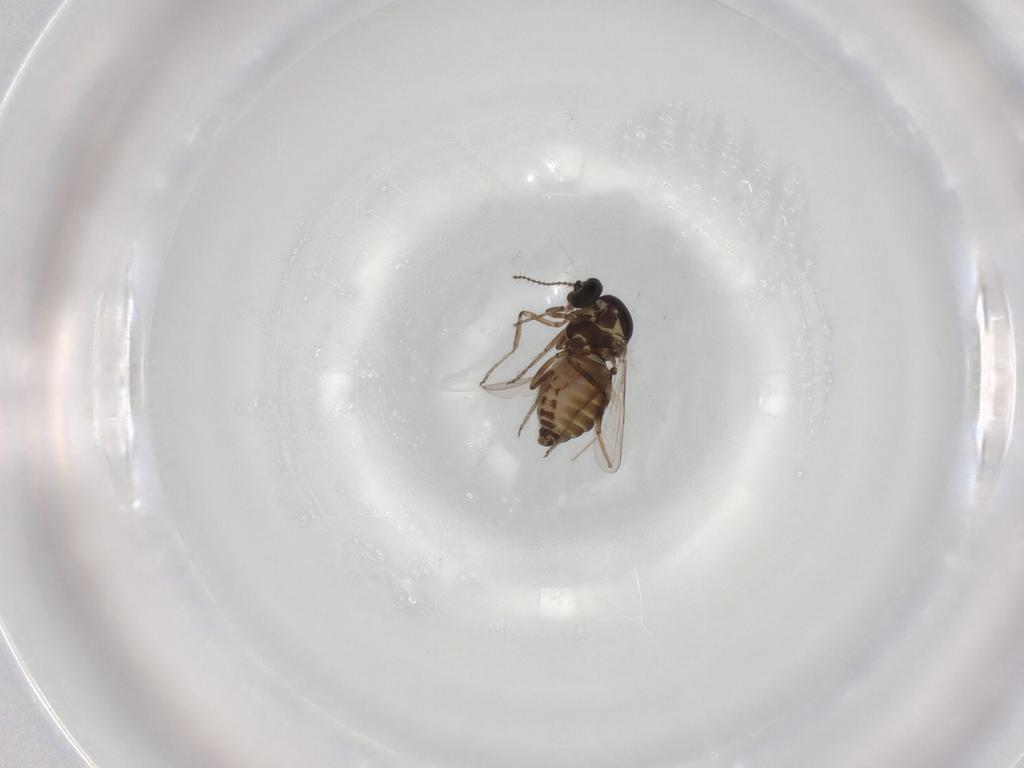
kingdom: Animalia
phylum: Arthropoda
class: Insecta
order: Diptera
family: Ceratopogonidae
